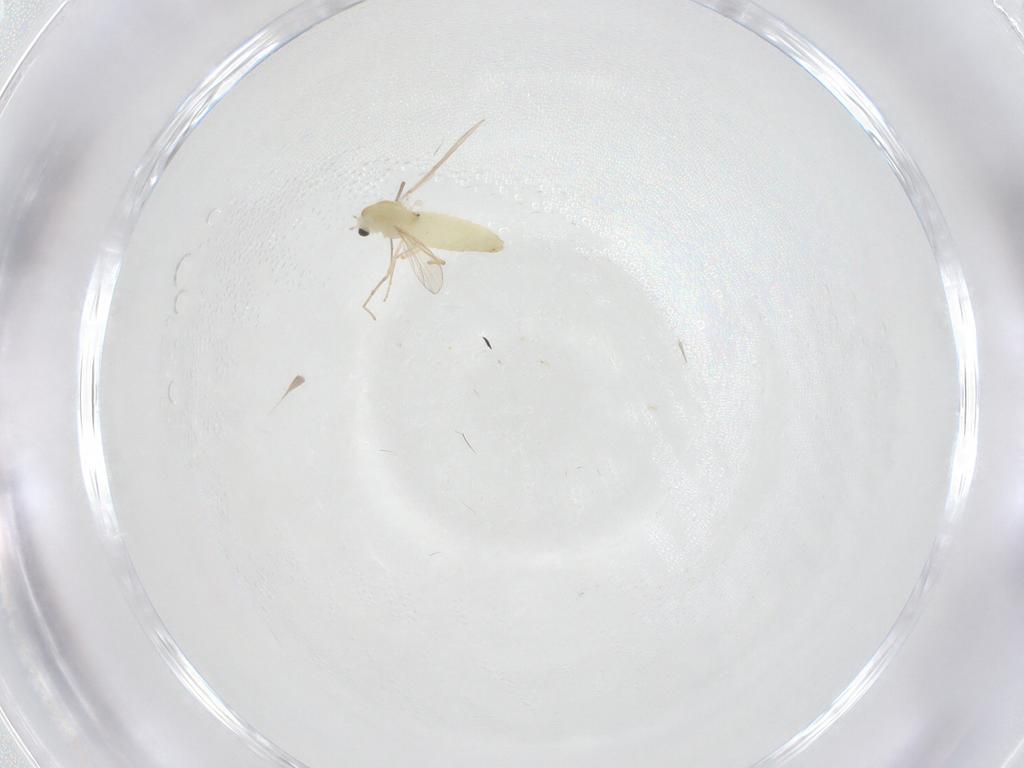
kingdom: Animalia
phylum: Arthropoda
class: Insecta
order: Diptera
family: Chironomidae
